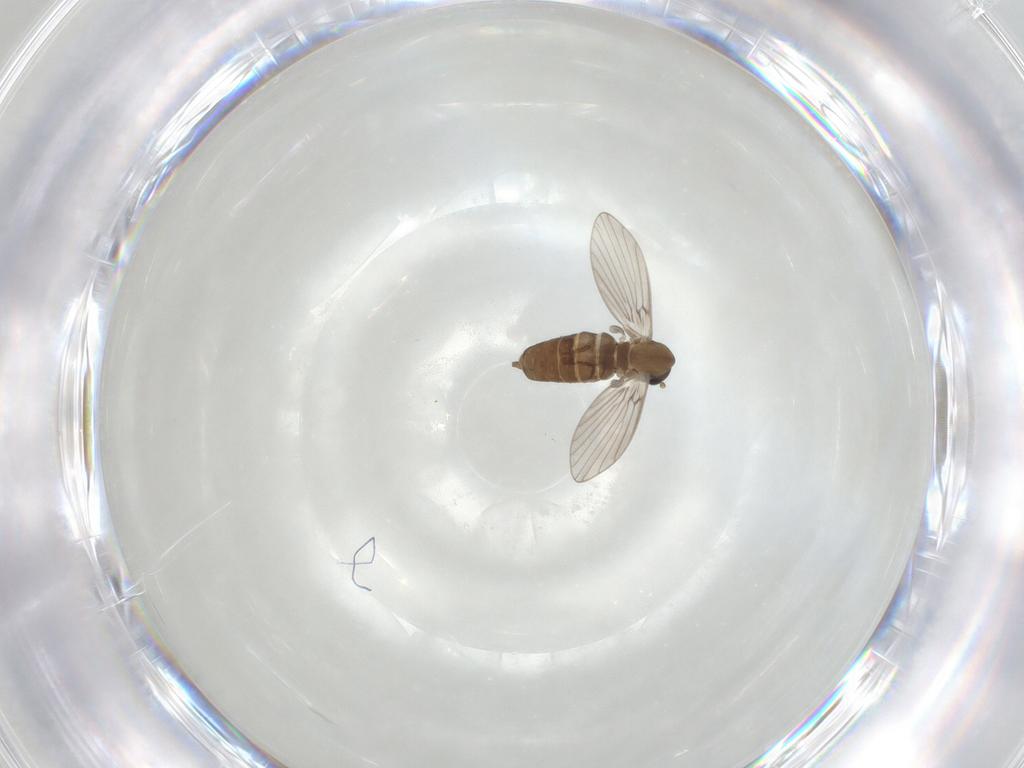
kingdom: Animalia
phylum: Arthropoda
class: Insecta
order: Diptera
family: Psychodidae
